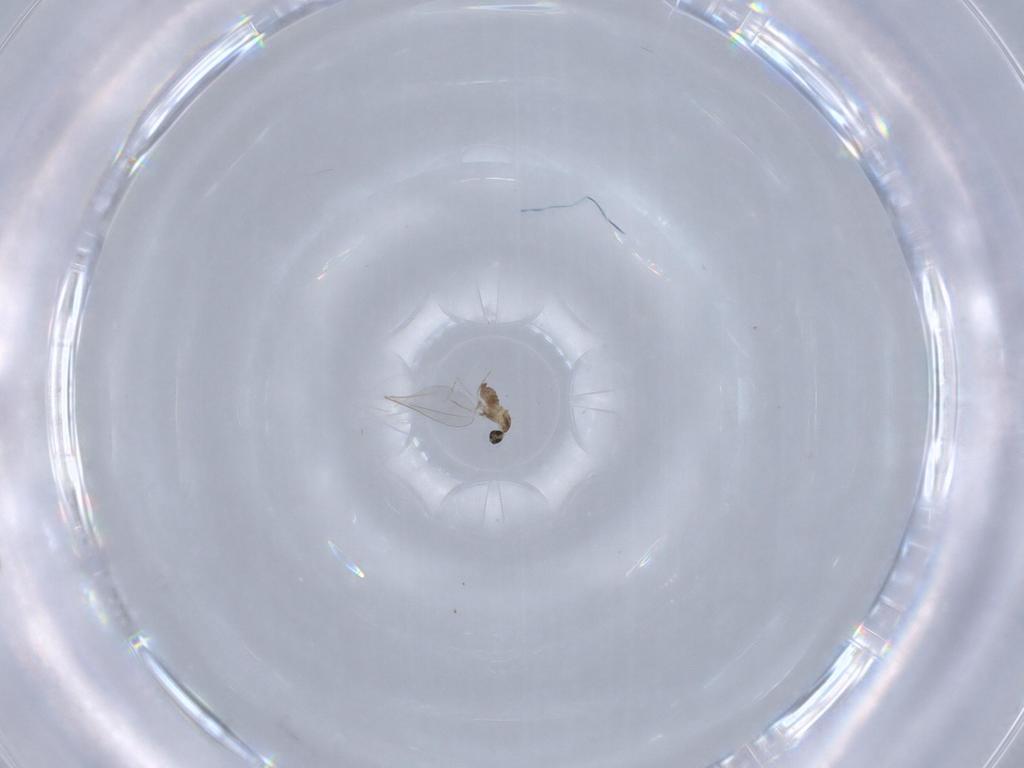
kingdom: Animalia
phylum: Arthropoda
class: Insecta
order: Diptera
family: Cecidomyiidae
